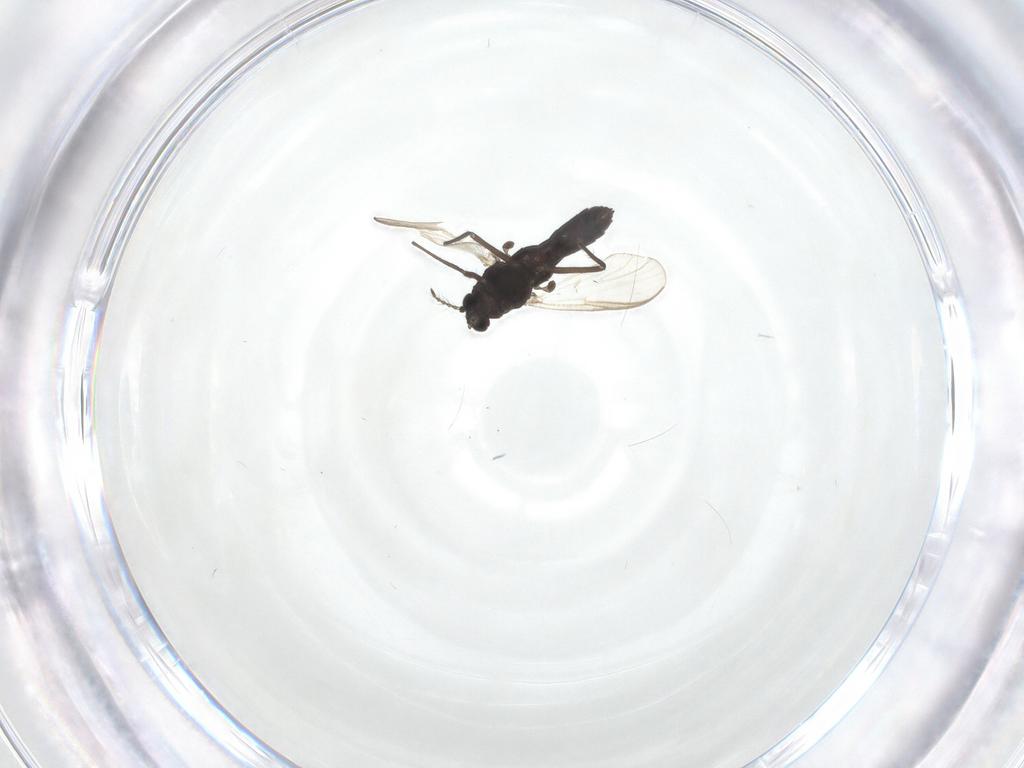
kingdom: Animalia
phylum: Arthropoda
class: Insecta
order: Diptera
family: Chironomidae
